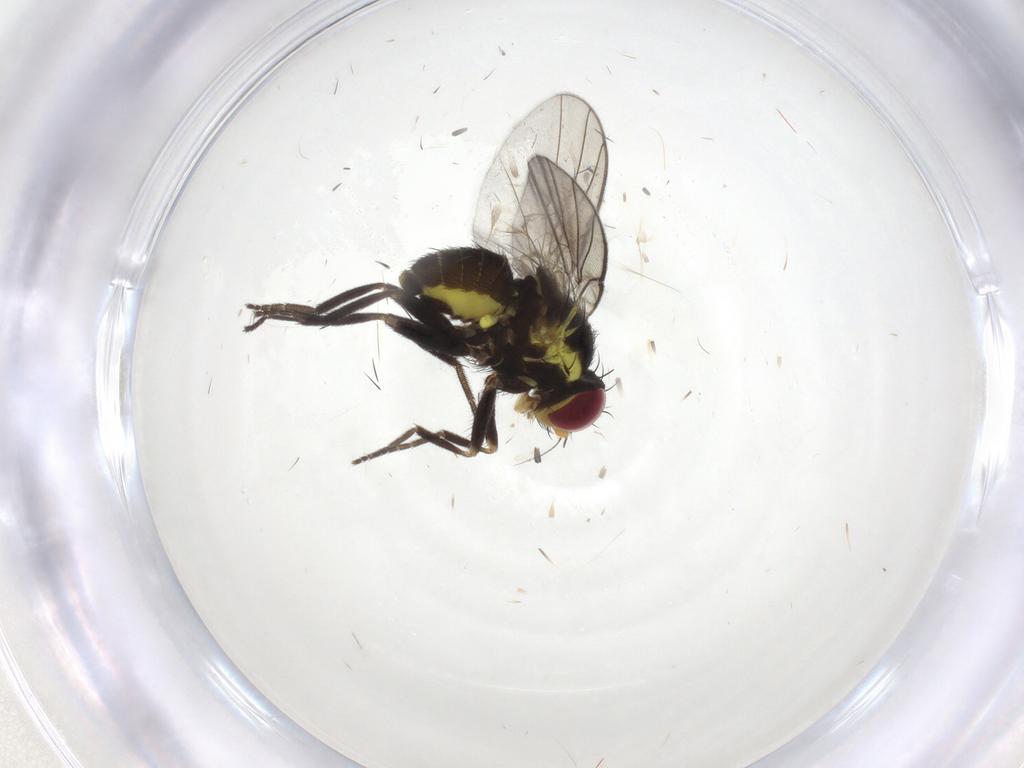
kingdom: Animalia
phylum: Arthropoda
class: Insecta
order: Diptera
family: Agromyzidae
